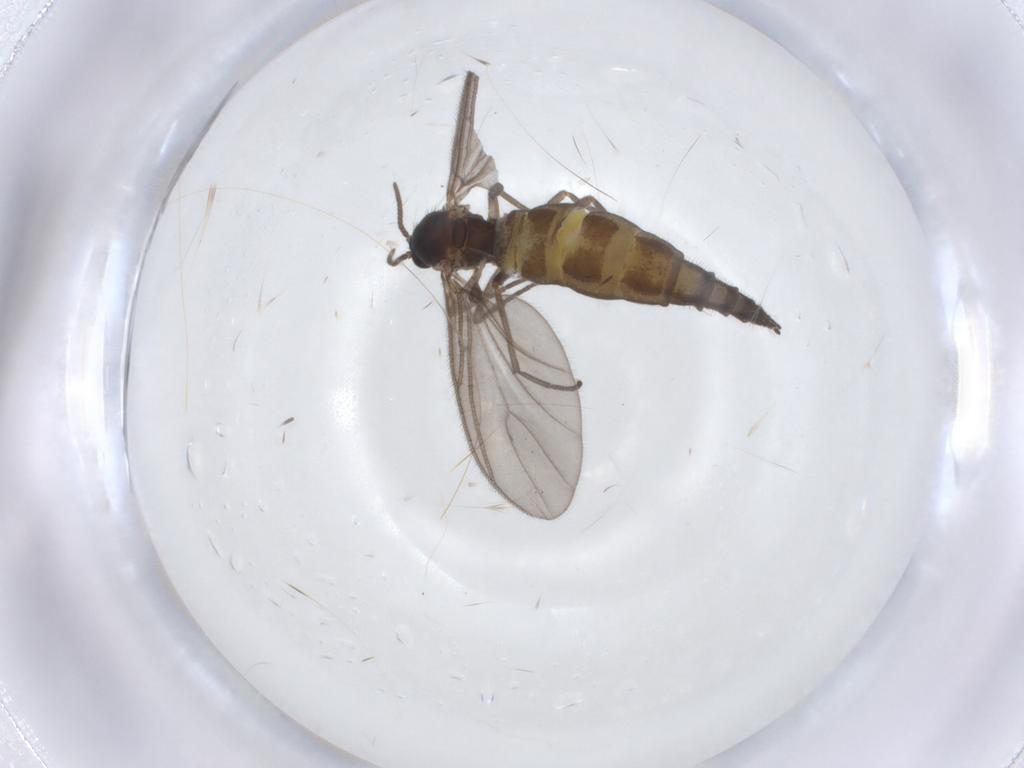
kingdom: Animalia
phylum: Arthropoda
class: Insecta
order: Diptera
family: Sciaridae
